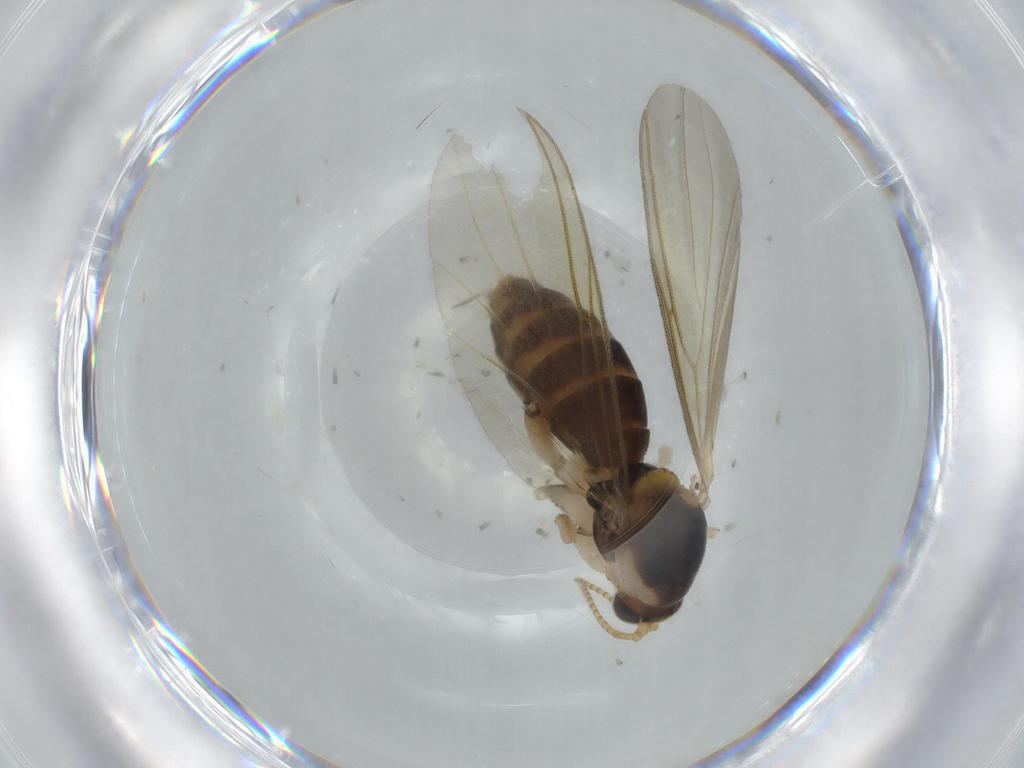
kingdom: Animalia
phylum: Arthropoda
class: Insecta
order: Diptera
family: Mycetophilidae
